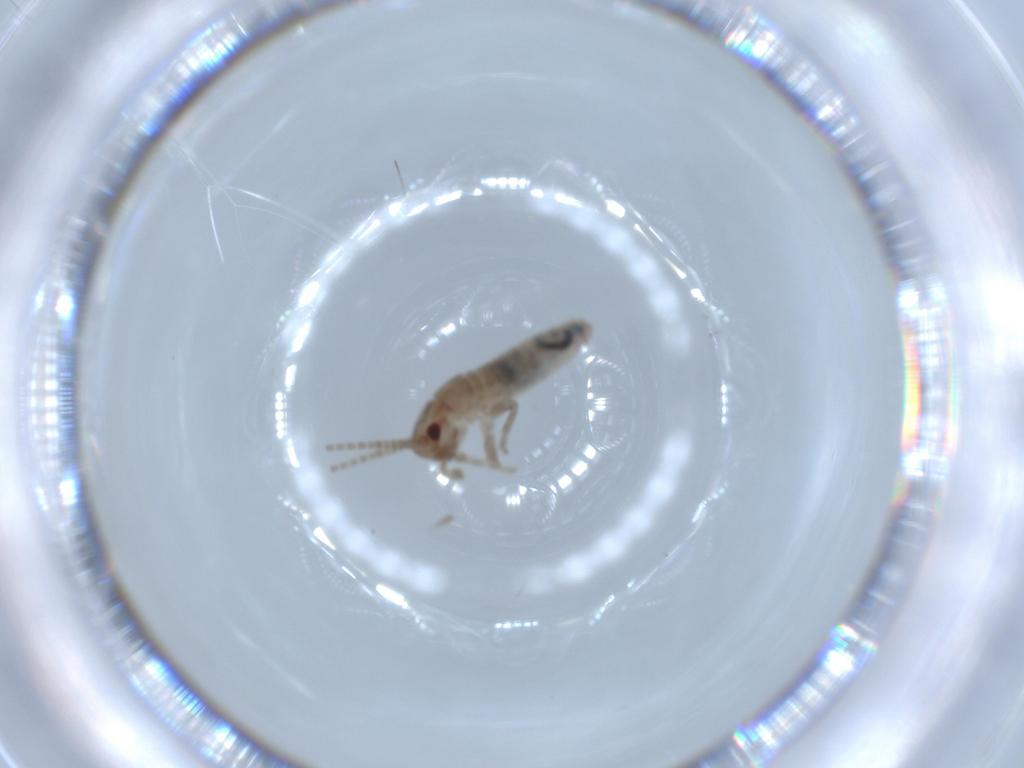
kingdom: Animalia
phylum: Arthropoda
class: Insecta
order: Orthoptera
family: Mogoplistidae
